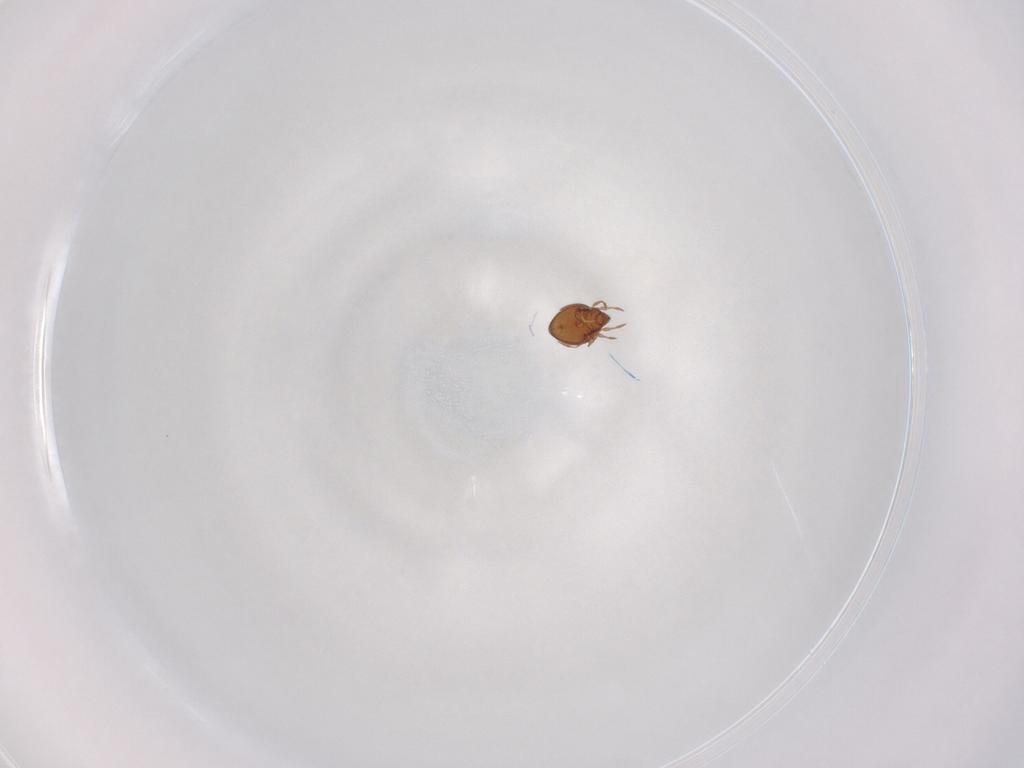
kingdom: Animalia
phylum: Arthropoda
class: Arachnida
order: Sarcoptiformes
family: Oribatulidae
